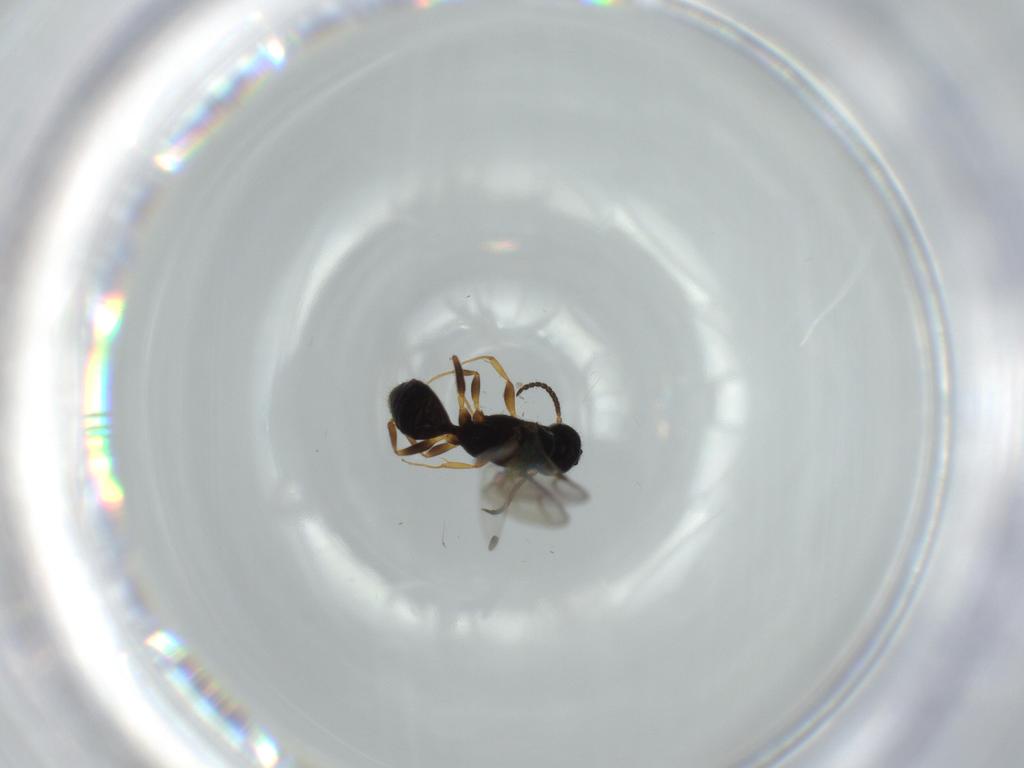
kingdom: Animalia
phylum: Arthropoda
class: Insecta
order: Hymenoptera
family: Bethylidae
